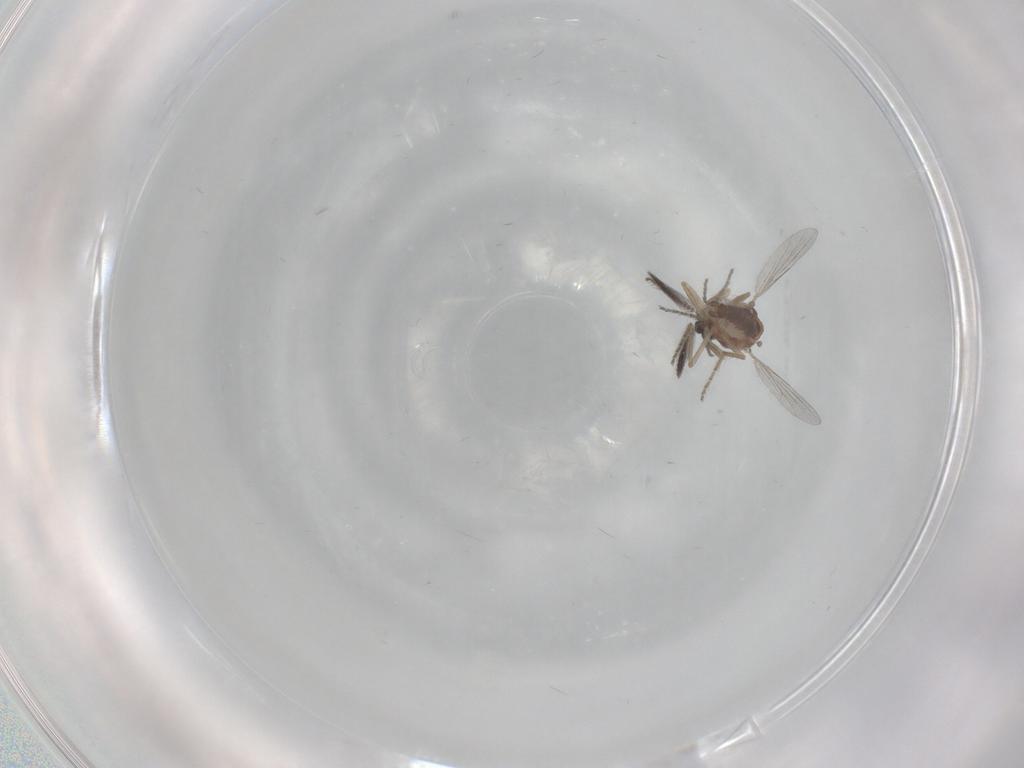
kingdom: Animalia
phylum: Arthropoda
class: Insecta
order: Diptera
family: Ceratopogonidae
